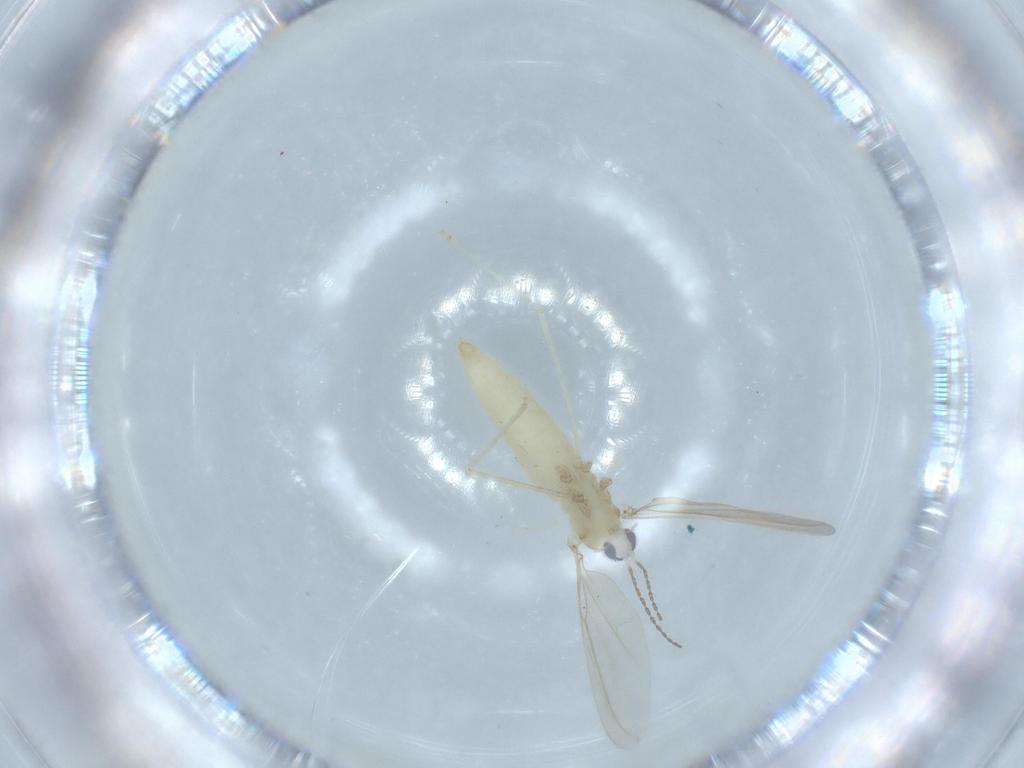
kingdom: Animalia
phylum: Arthropoda
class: Insecta
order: Diptera
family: Cecidomyiidae
